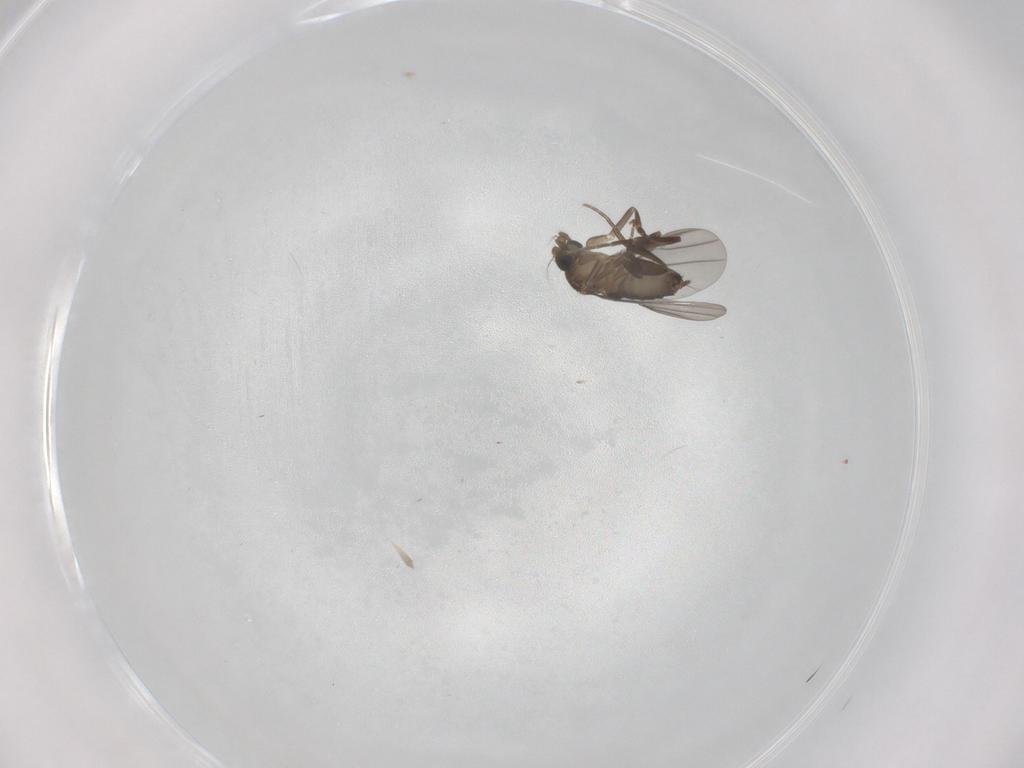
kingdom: Animalia
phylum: Arthropoda
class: Insecta
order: Diptera
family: Phoridae
